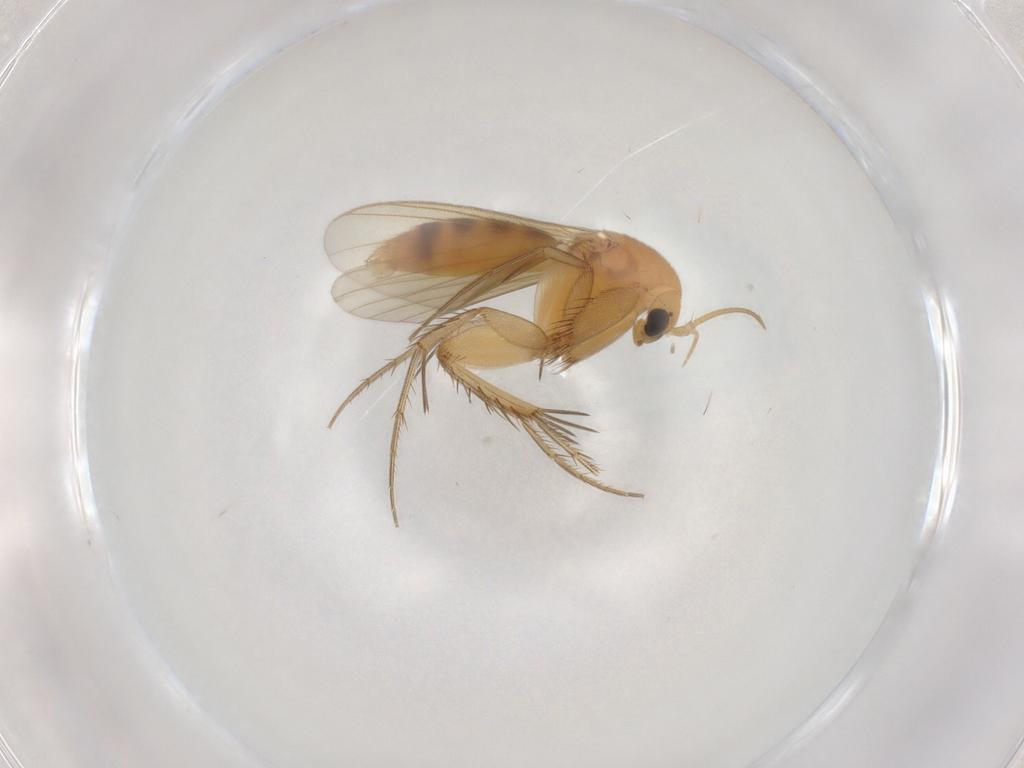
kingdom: Animalia
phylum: Arthropoda
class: Insecta
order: Diptera
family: Mycetophilidae
